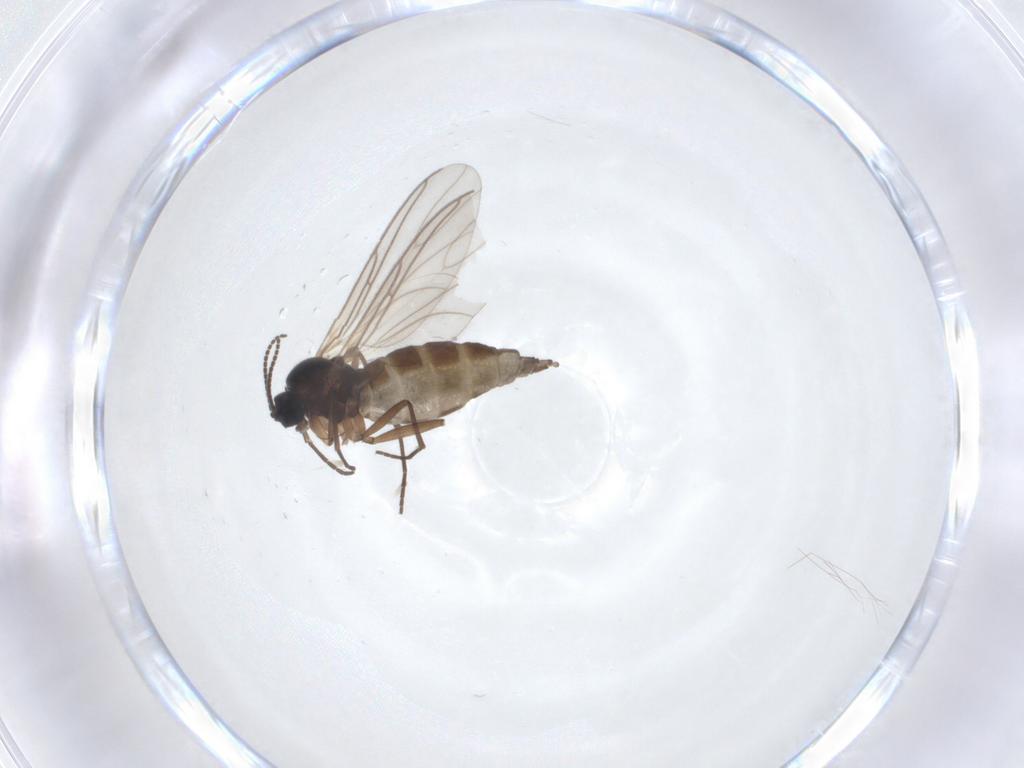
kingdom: Animalia
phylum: Arthropoda
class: Insecta
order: Diptera
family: Sciaridae
